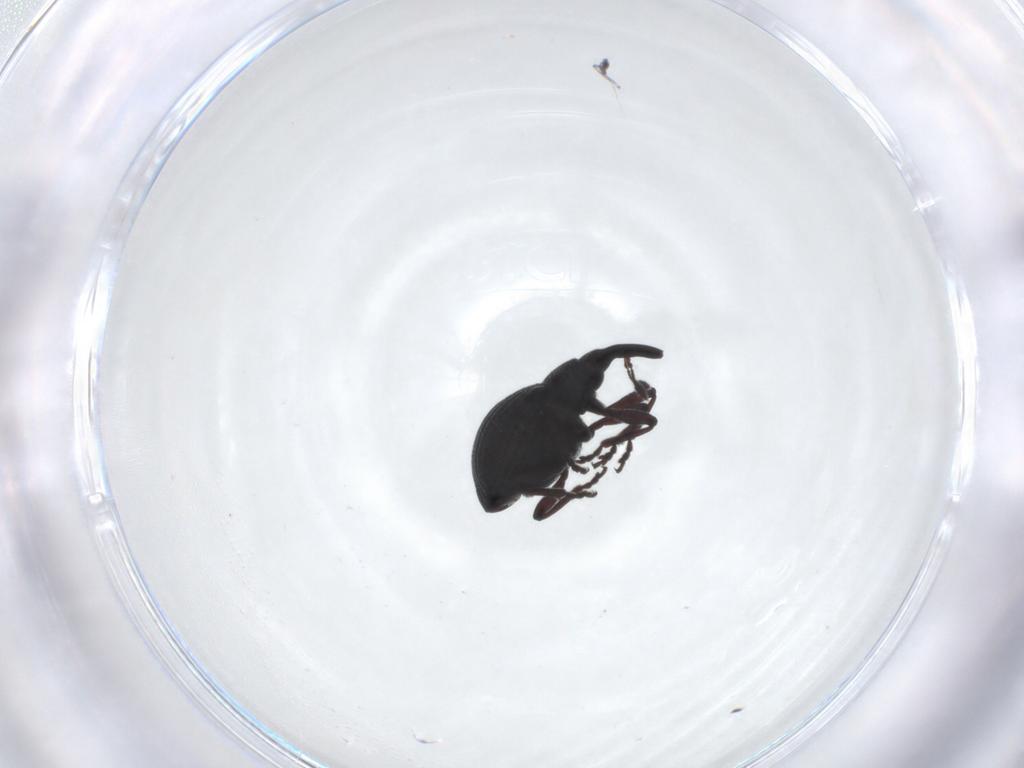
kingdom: Animalia
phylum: Arthropoda
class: Insecta
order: Coleoptera
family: Brentidae
